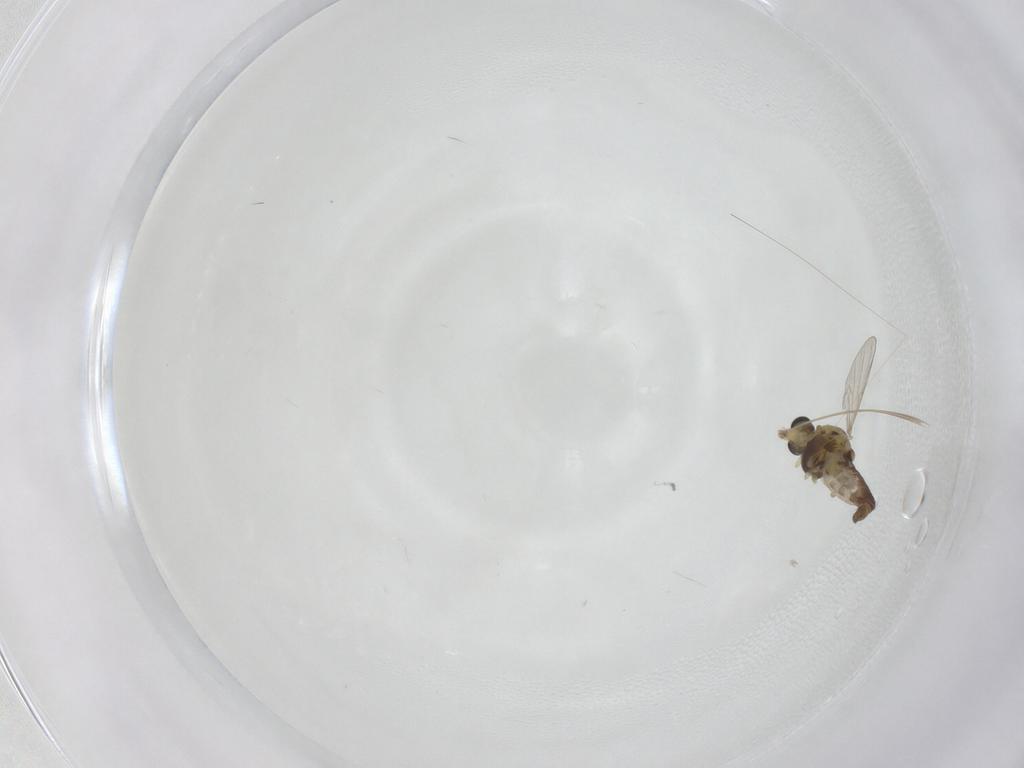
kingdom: Animalia
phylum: Arthropoda
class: Insecta
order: Diptera
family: Chironomidae
